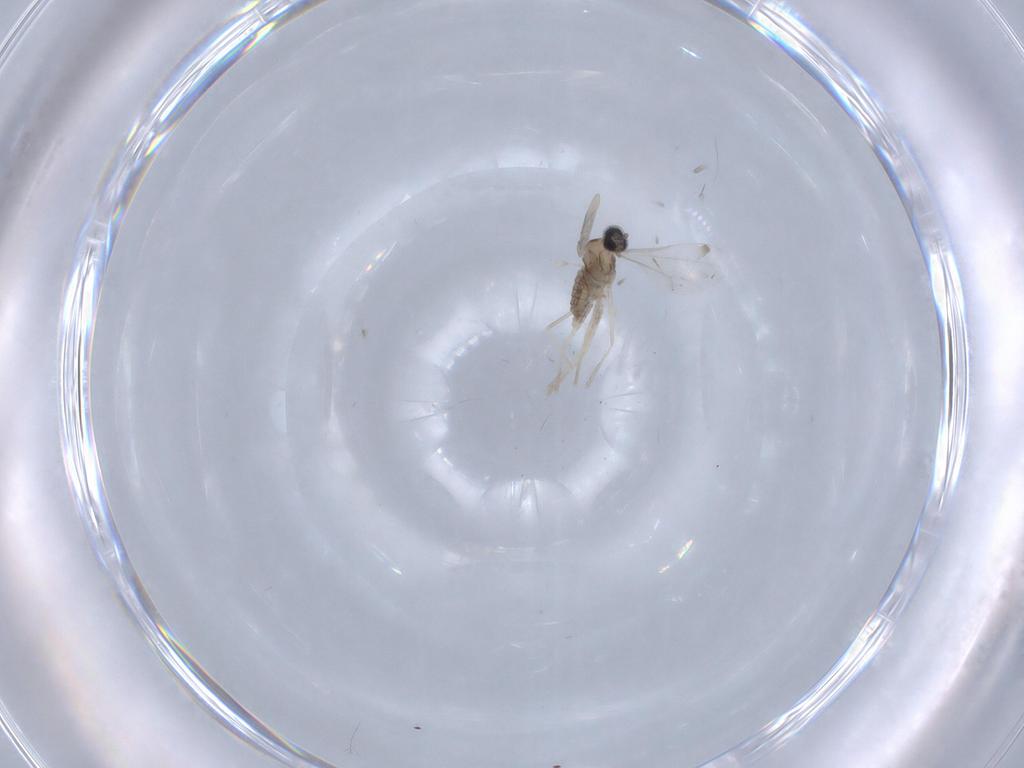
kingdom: Animalia
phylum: Arthropoda
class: Insecta
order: Diptera
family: Cecidomyiidae
